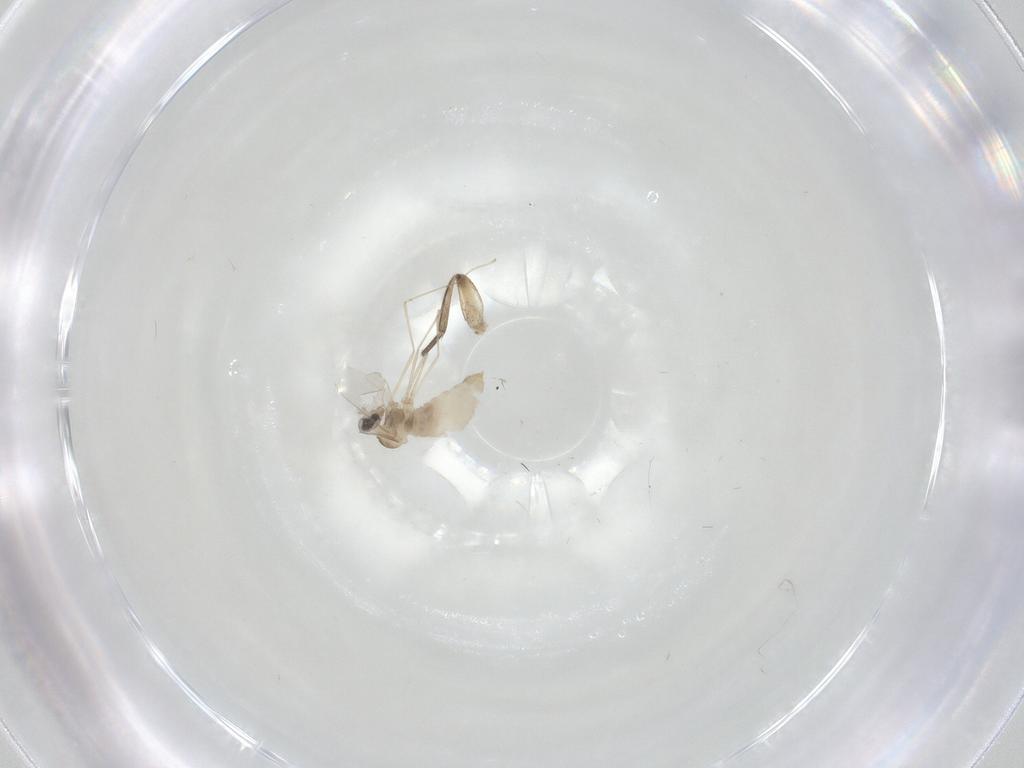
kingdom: Animalia
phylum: Arthropoda
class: Insecta
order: Diptera
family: Cecidomyiidae
